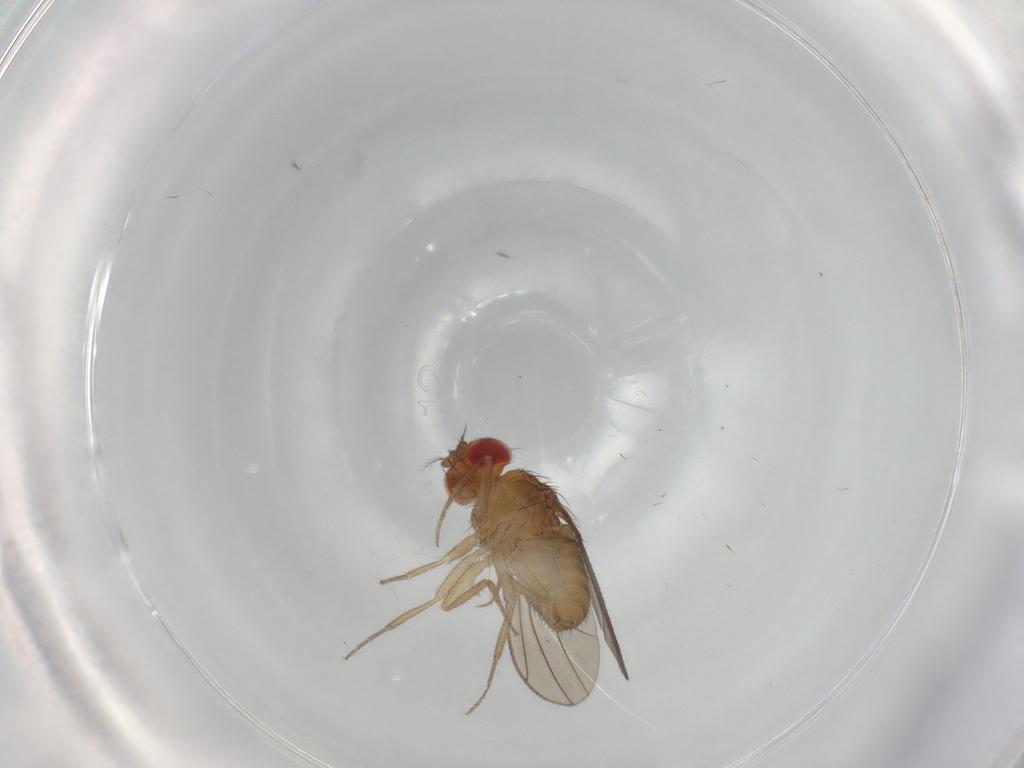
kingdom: Animalia
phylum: Arthropoda
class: Insecta
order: Diptera
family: Drosophilidae
